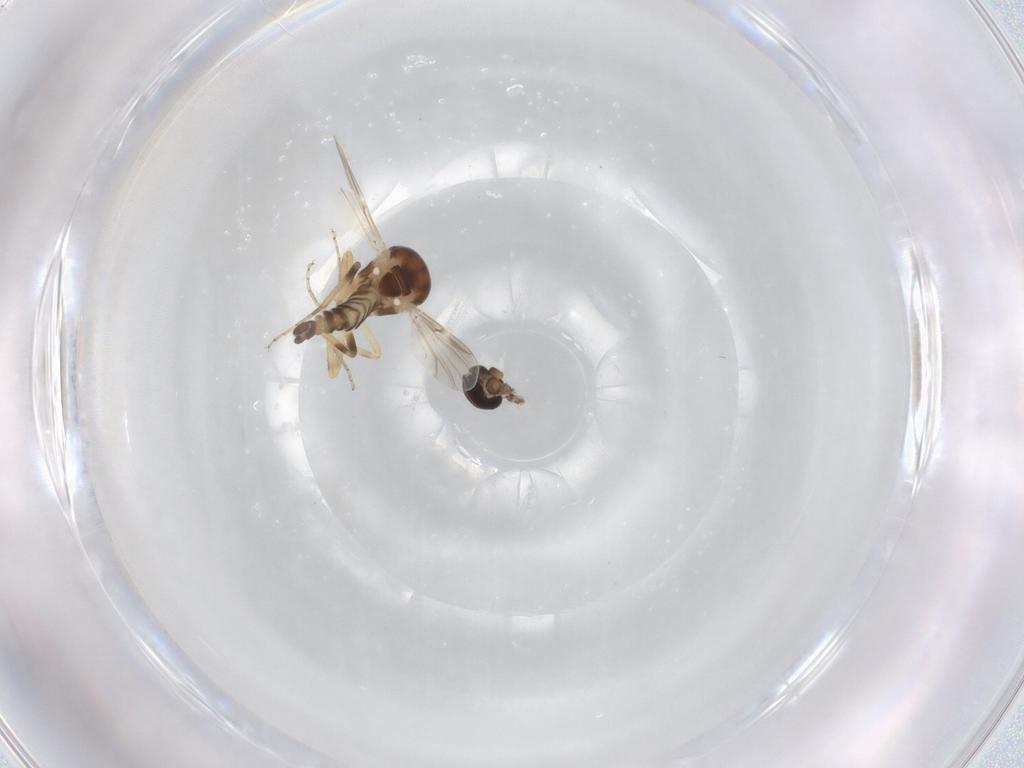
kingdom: Animalia
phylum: Arthropoda
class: Insecta
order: Diptera
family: Ceratopogonidae
